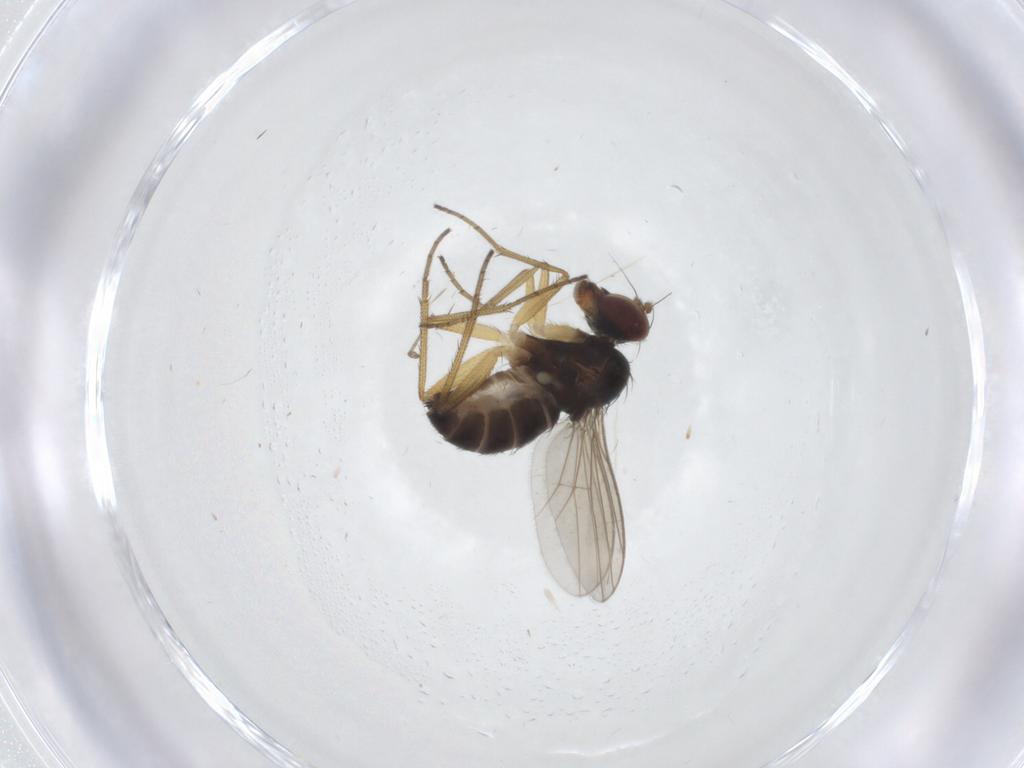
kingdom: Animalia
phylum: Arthropoda
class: Insecta
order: Diptera
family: Dolichopodidae
